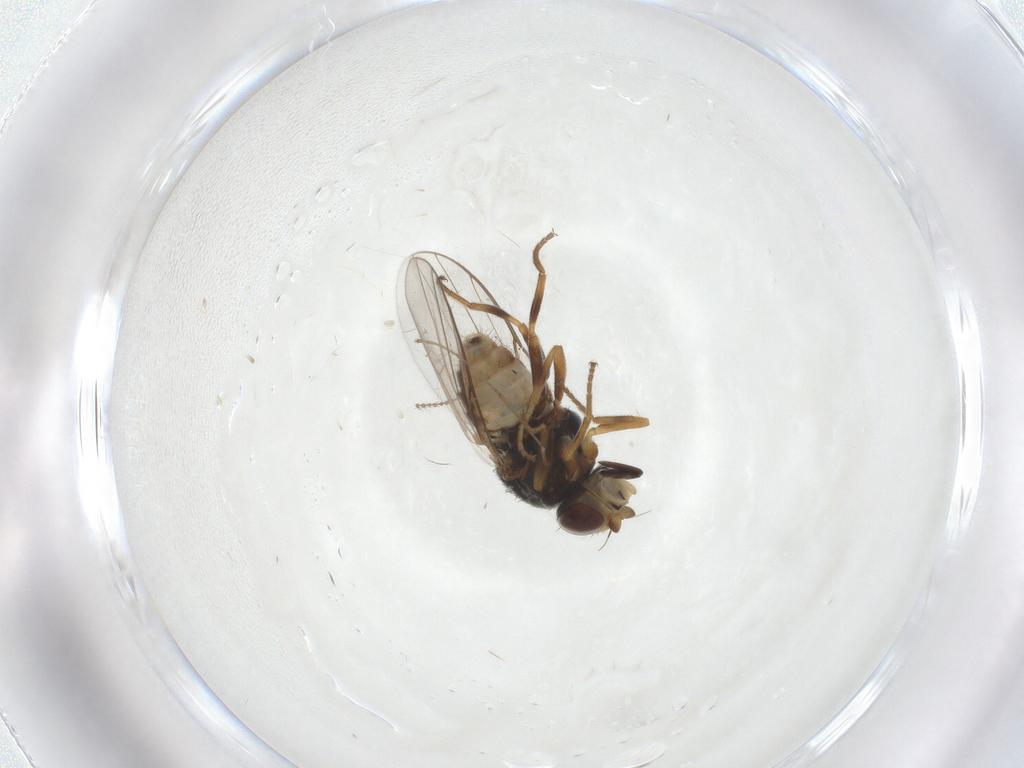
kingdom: Animalia
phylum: Arthropoda
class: Insecta
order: Diptera
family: Chloropidae
